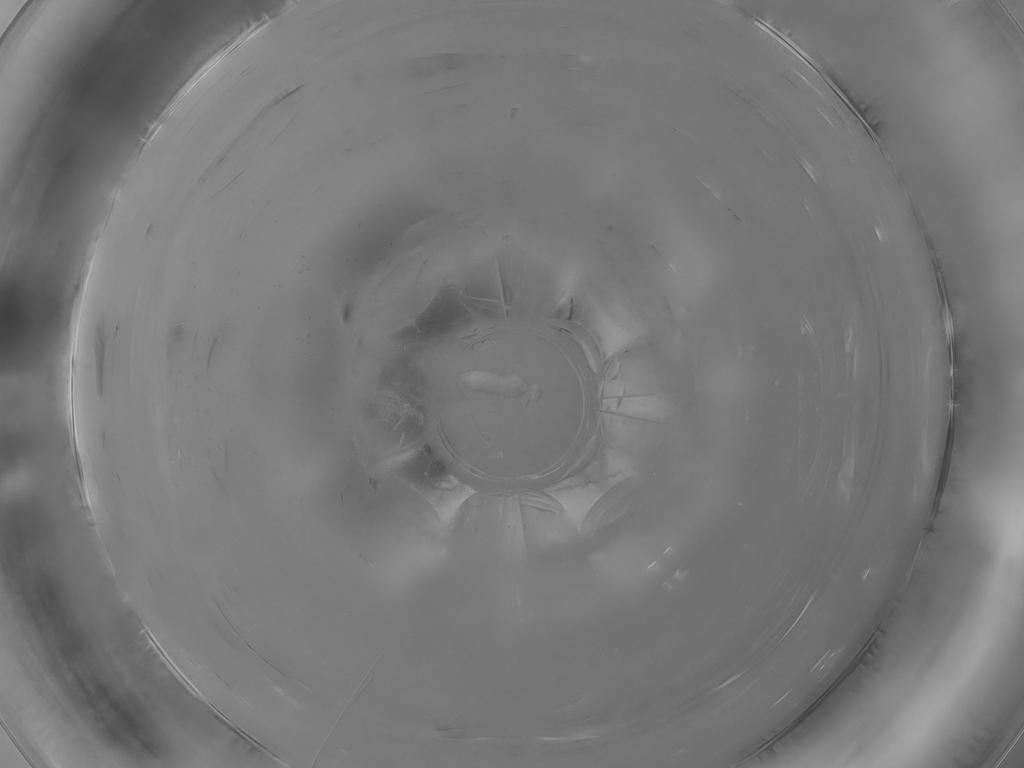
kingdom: Animalia
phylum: Arthropoda
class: Insecta
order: Diptera
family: Cecidomyiidae
